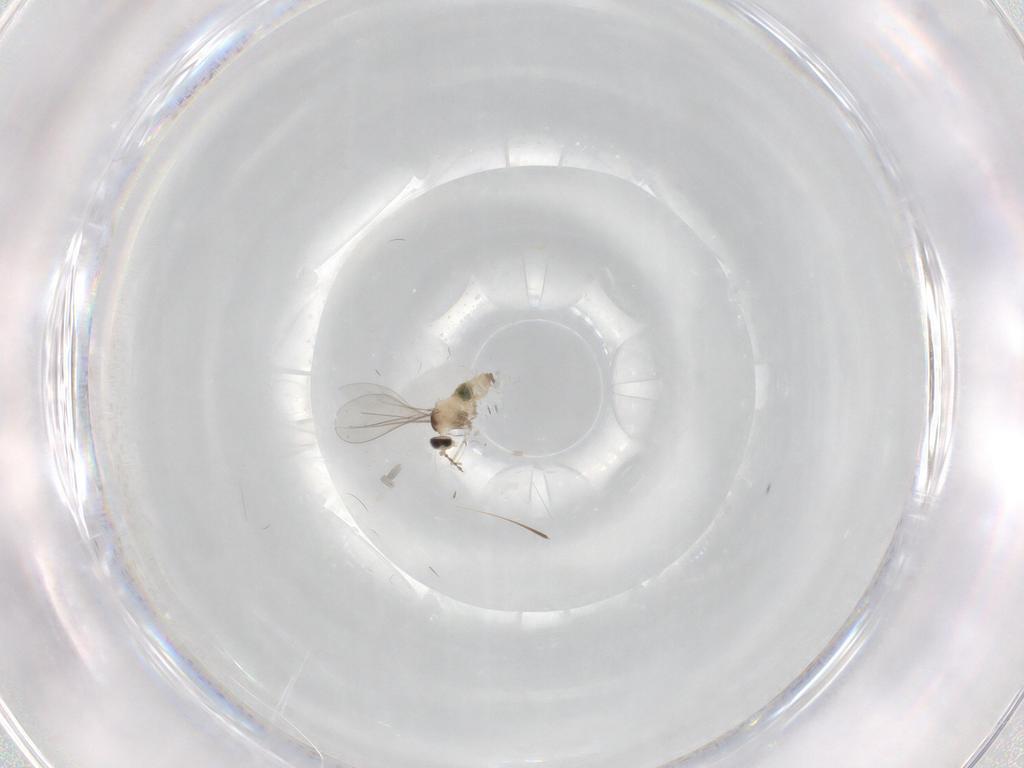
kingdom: Animalia
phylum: Arthropoda
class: Insecta
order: Diptera
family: Cecidomyiidae
